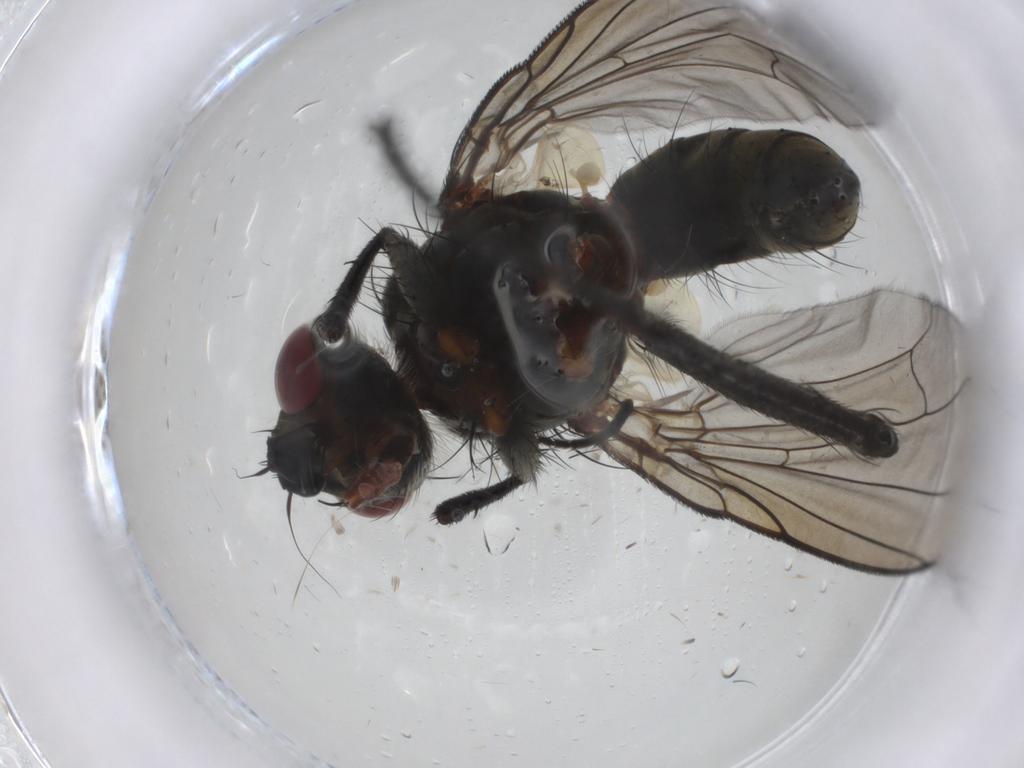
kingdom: Animalia
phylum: Arthropoda
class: Insecta
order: Diptera
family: Tachinidae
